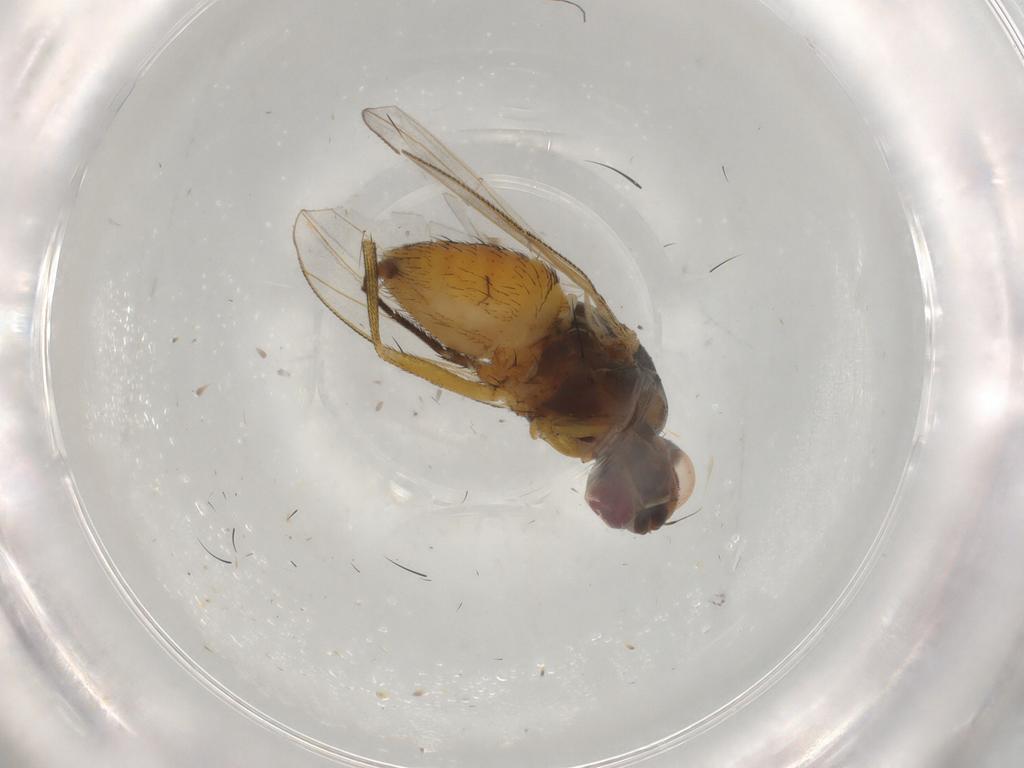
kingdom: Animalia
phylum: Arthropoda
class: Insecta
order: Diptera
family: Muscidae
